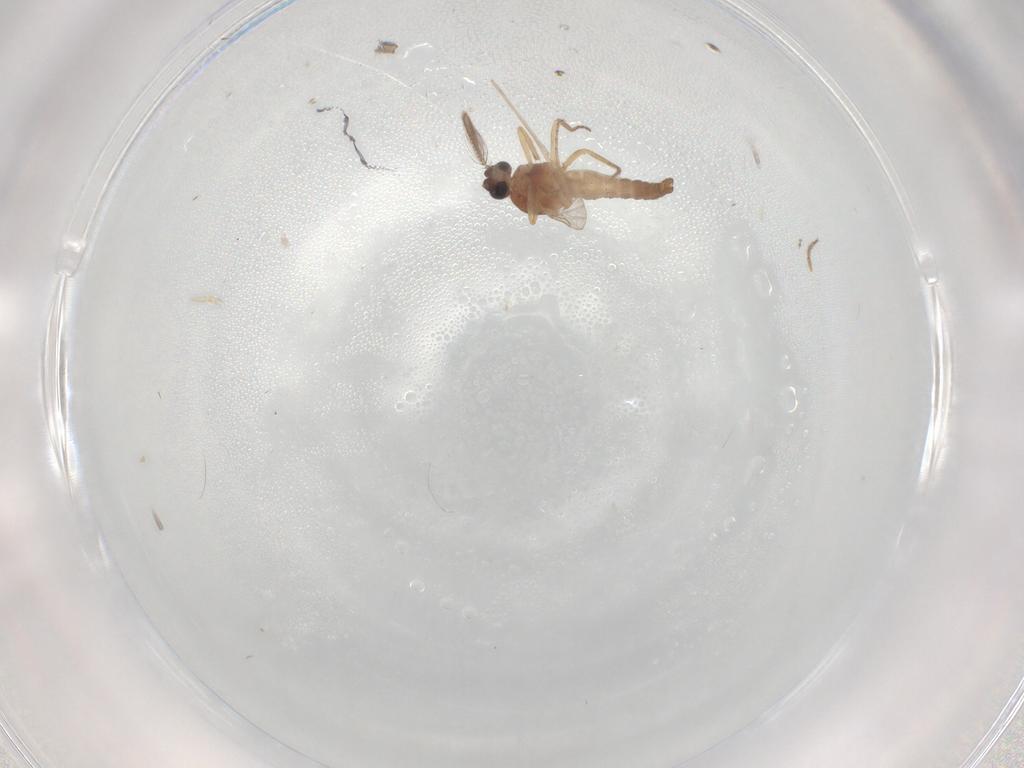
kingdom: Animalia
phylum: Arthropoda
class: Insecta
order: Diptera
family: Ceratopogonidae
